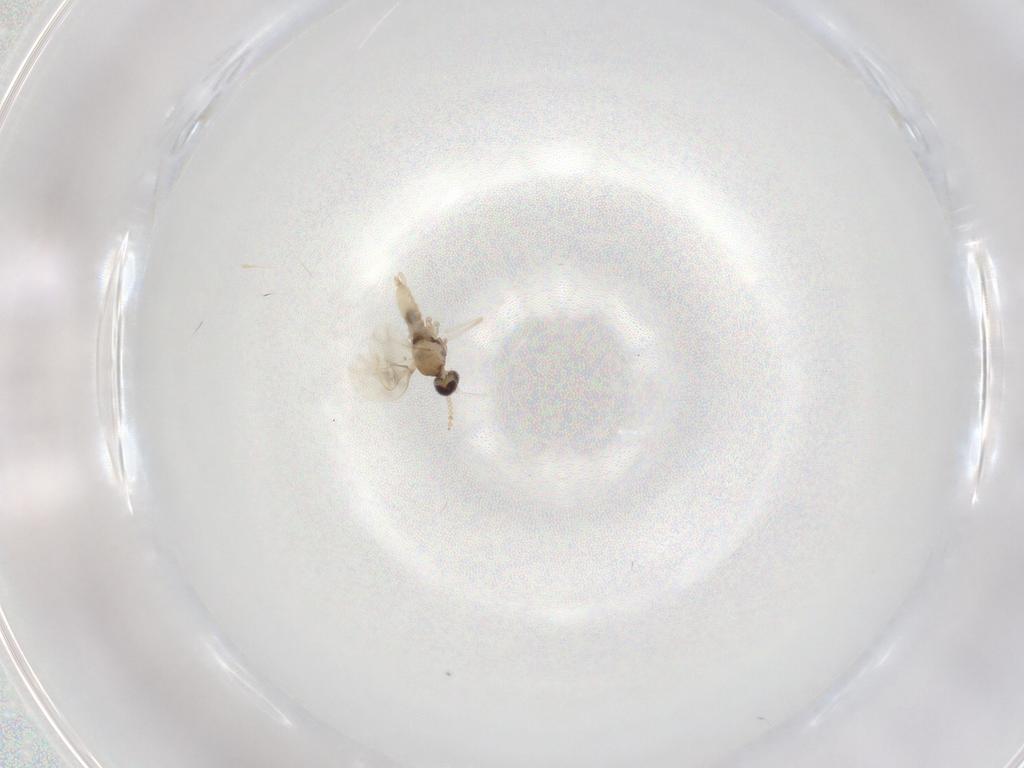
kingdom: Animalia
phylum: Arthropoda
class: Insecta
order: Diptera
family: Cecidomyiidae
